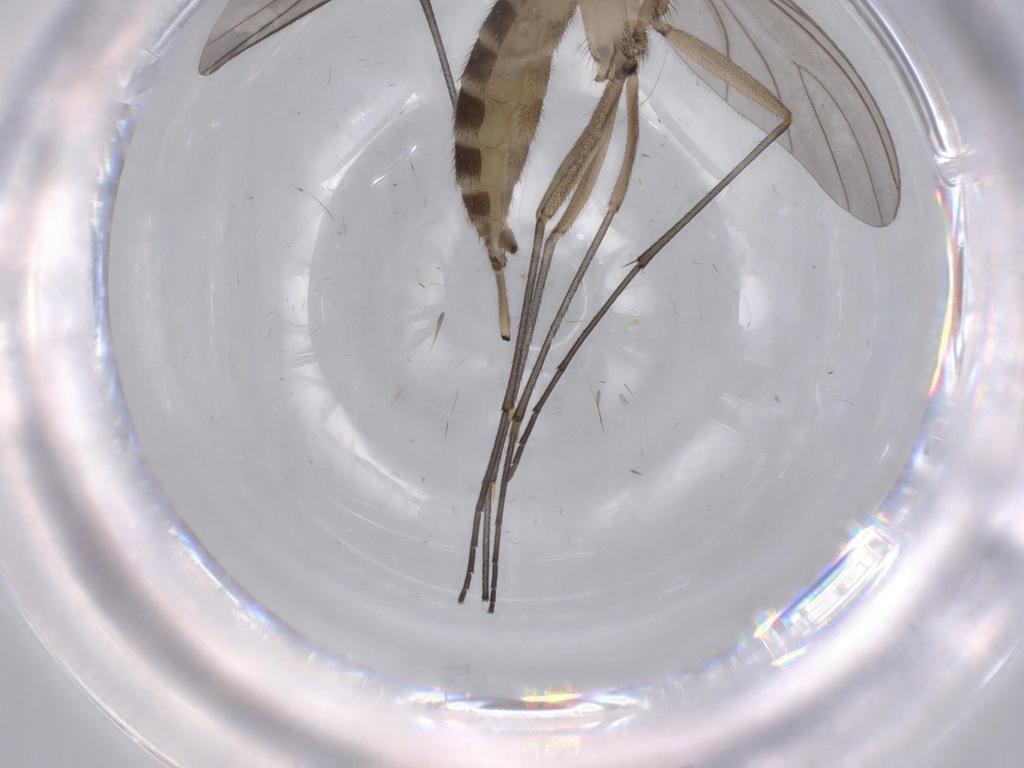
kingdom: Animalia
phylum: Arthropoda
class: Insecta
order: Diptera
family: Sciaridae
